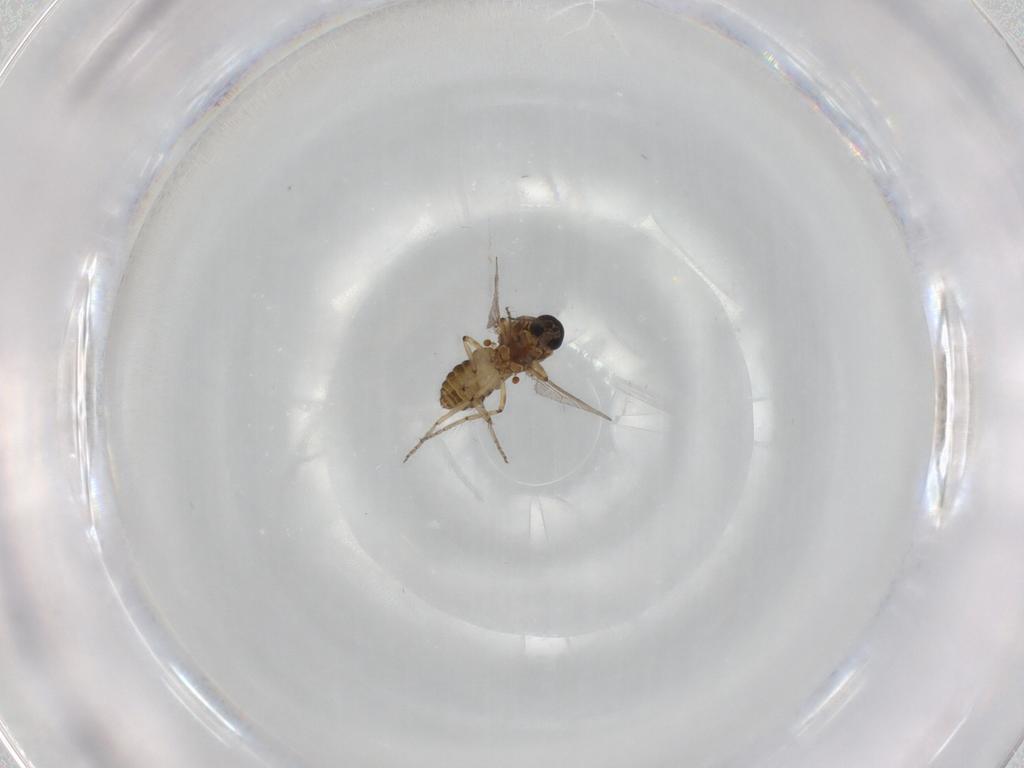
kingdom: Animalia
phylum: Arthropoda
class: Insecta
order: Diptera
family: Ceratopogonidae
